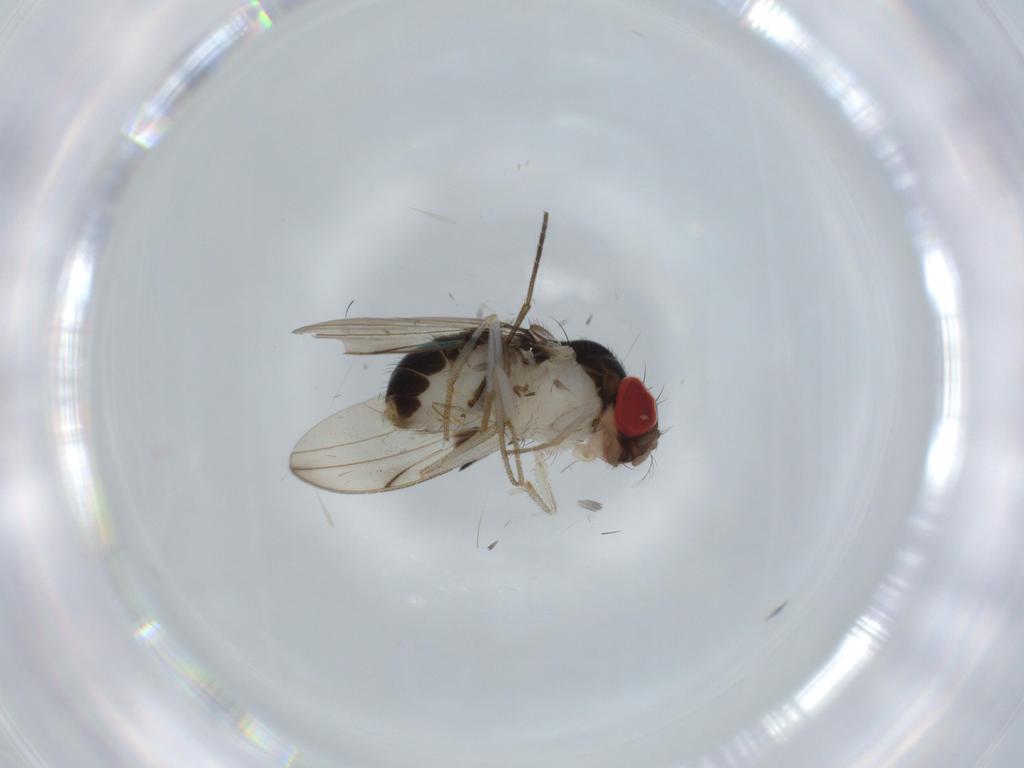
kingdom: Animalia
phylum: Arthropoda
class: Insecta
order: Diptera
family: Drosophilidae
